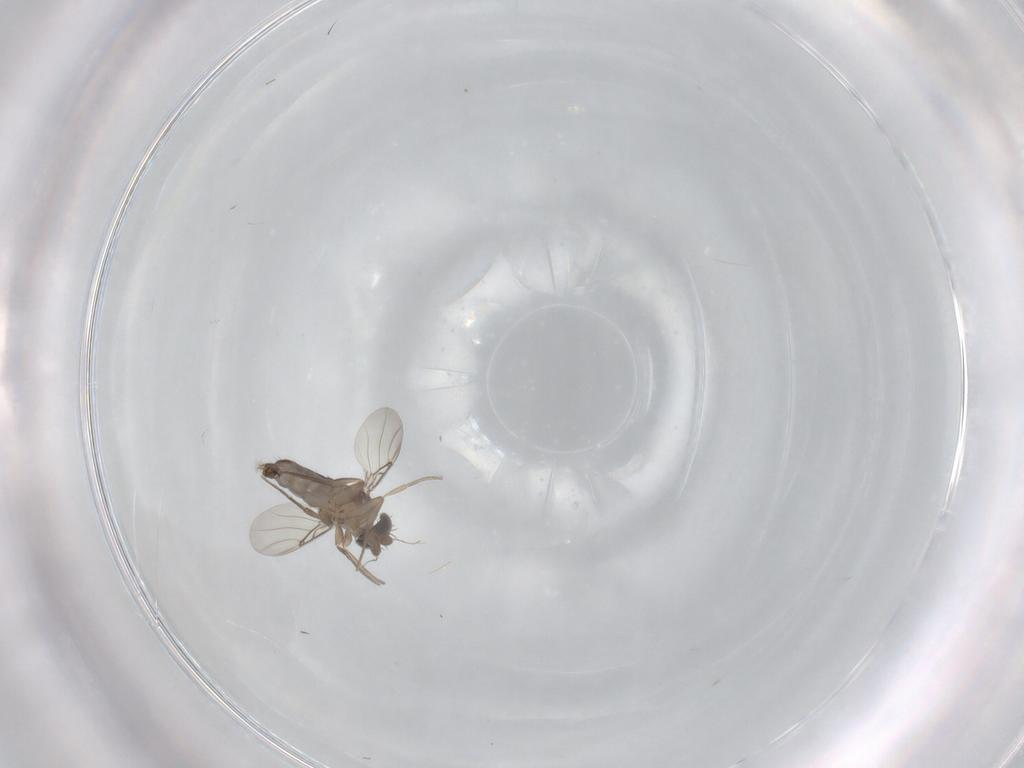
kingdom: Animalia
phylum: Arthropoda
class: Insecta
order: Diptera
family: Phoridae
